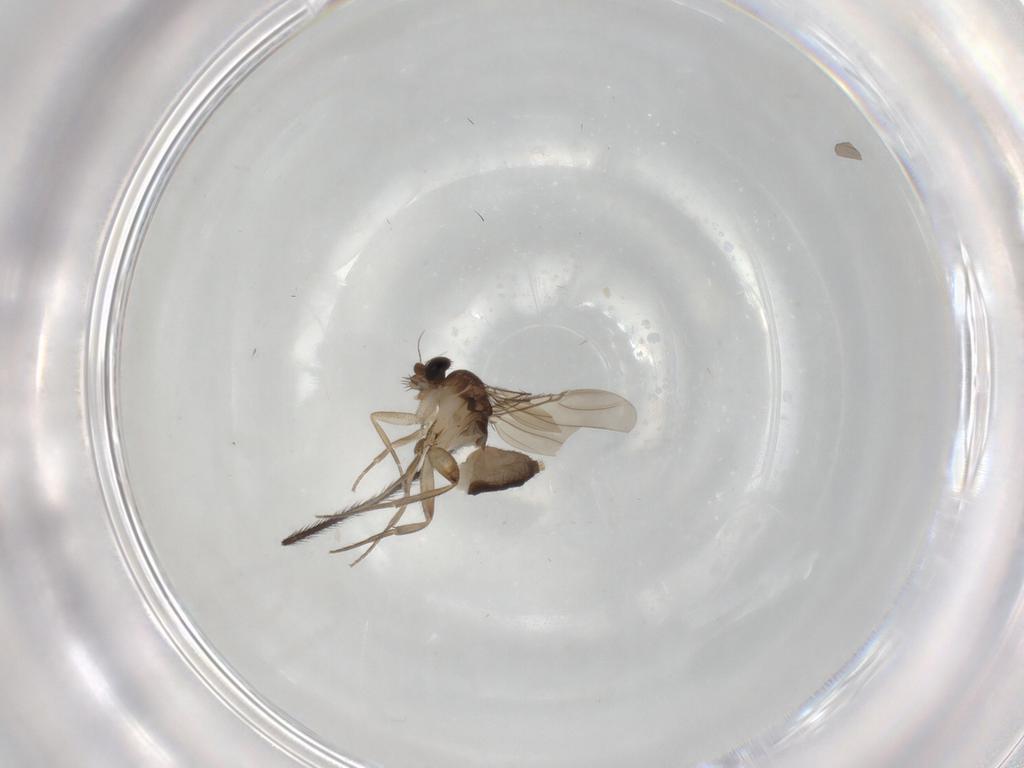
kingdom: Animalia
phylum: Arthropoda
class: Insecta
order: Diptera
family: Phoridae
